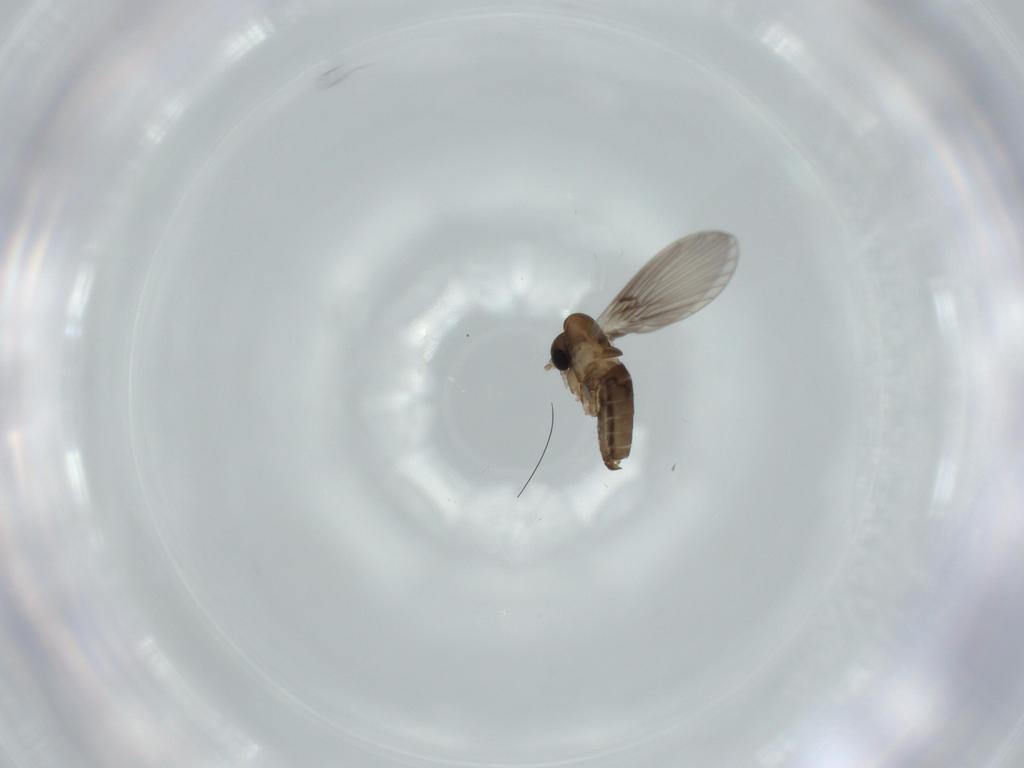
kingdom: Animalia
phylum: Arthropoda
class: Insecta
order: Diptera
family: Psychodidae
